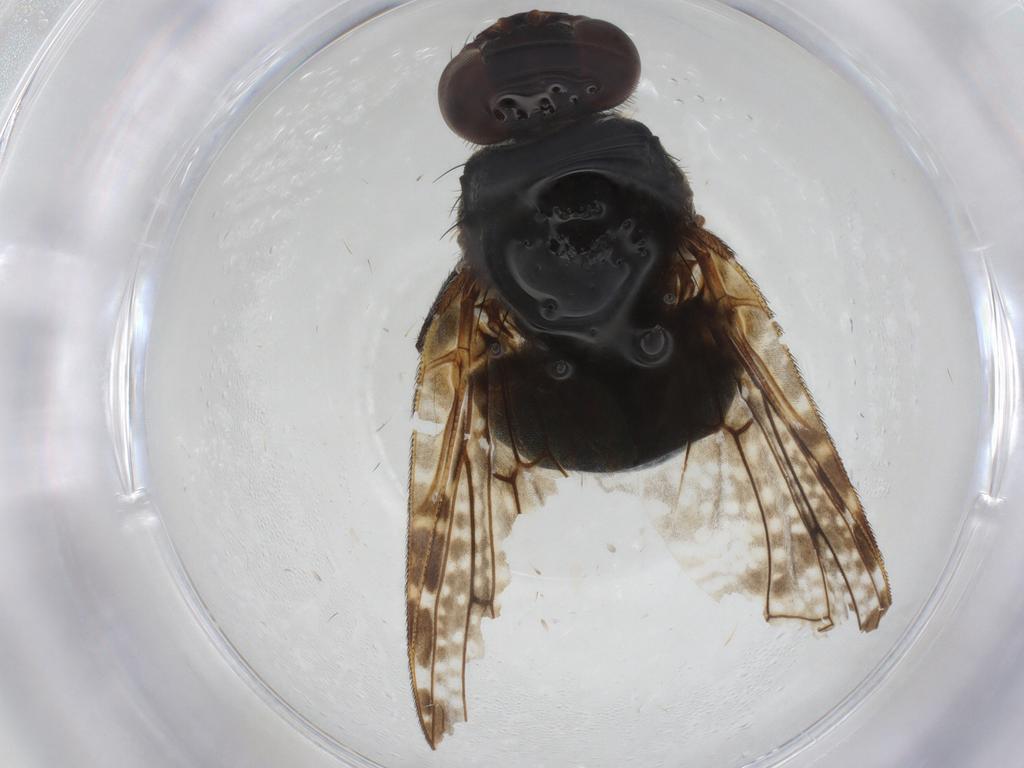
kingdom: Animalia
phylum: Arthropoda
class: Insecta
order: Diptera
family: Platystomatidae
